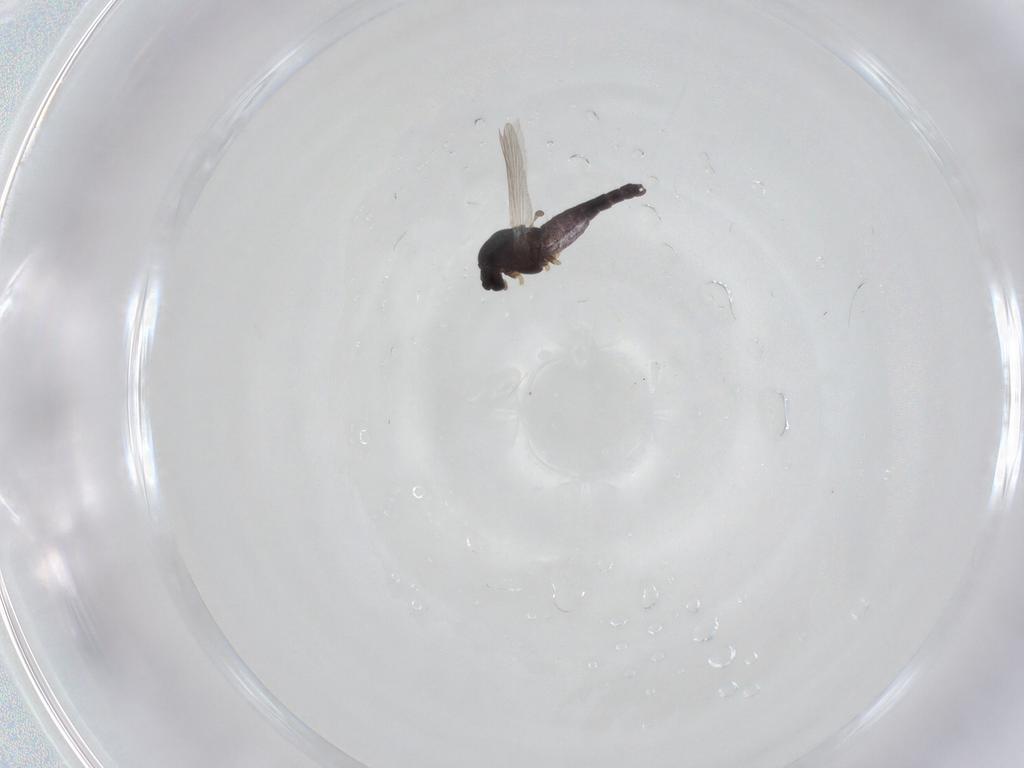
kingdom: Animalia
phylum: Arthropoda
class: Insecta
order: Diptera
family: Chironomidae
